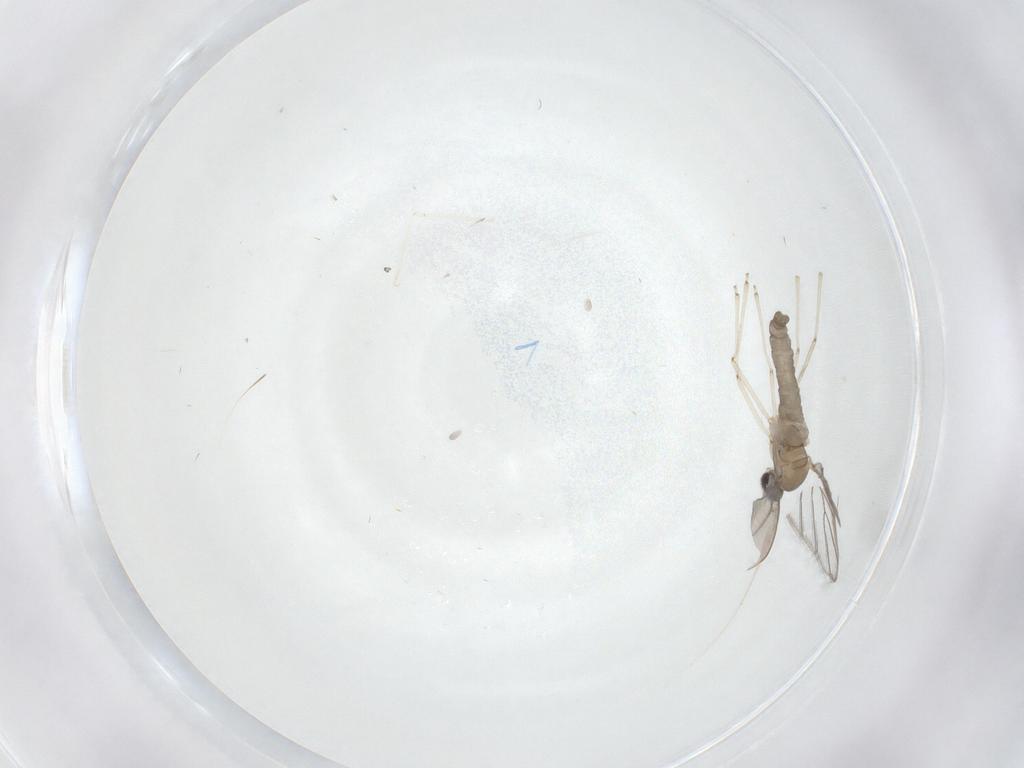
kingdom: Animalia
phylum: Arthropoda
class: Insecta
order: Diptera
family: Cecidomyiidae
